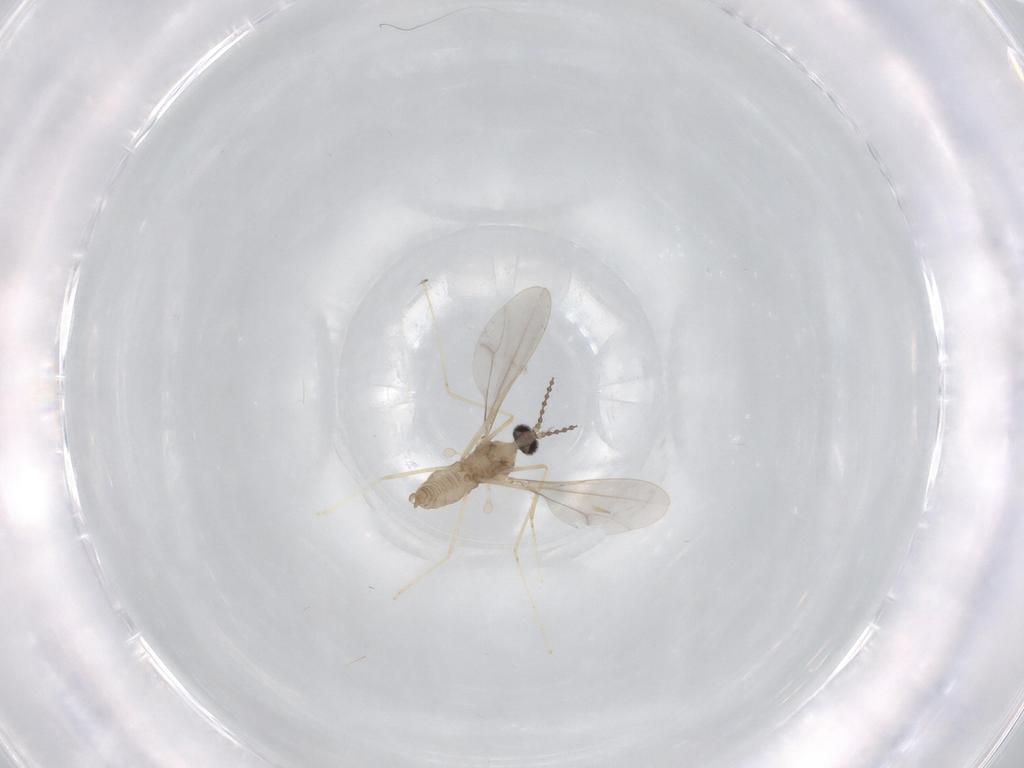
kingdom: Animalia
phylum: Arthropoda
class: Insecta
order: Diptera
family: Cecidomyiidae
